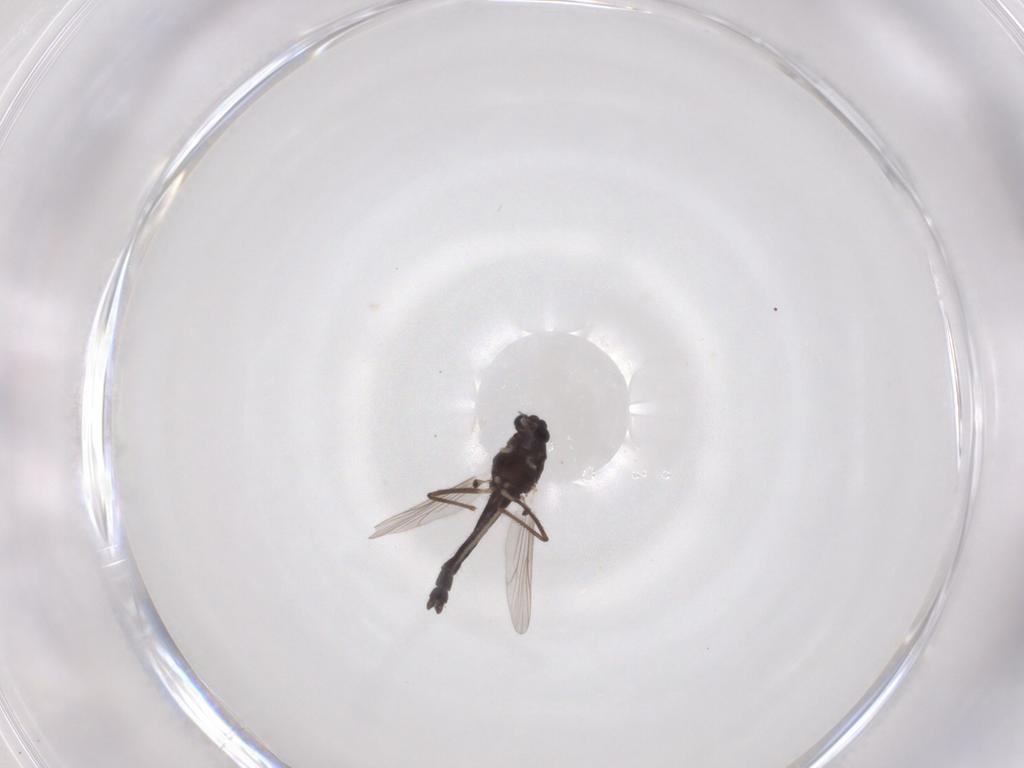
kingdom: Animalia
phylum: Arthropoda
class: Insecta
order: Diptera
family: Chironomidae
